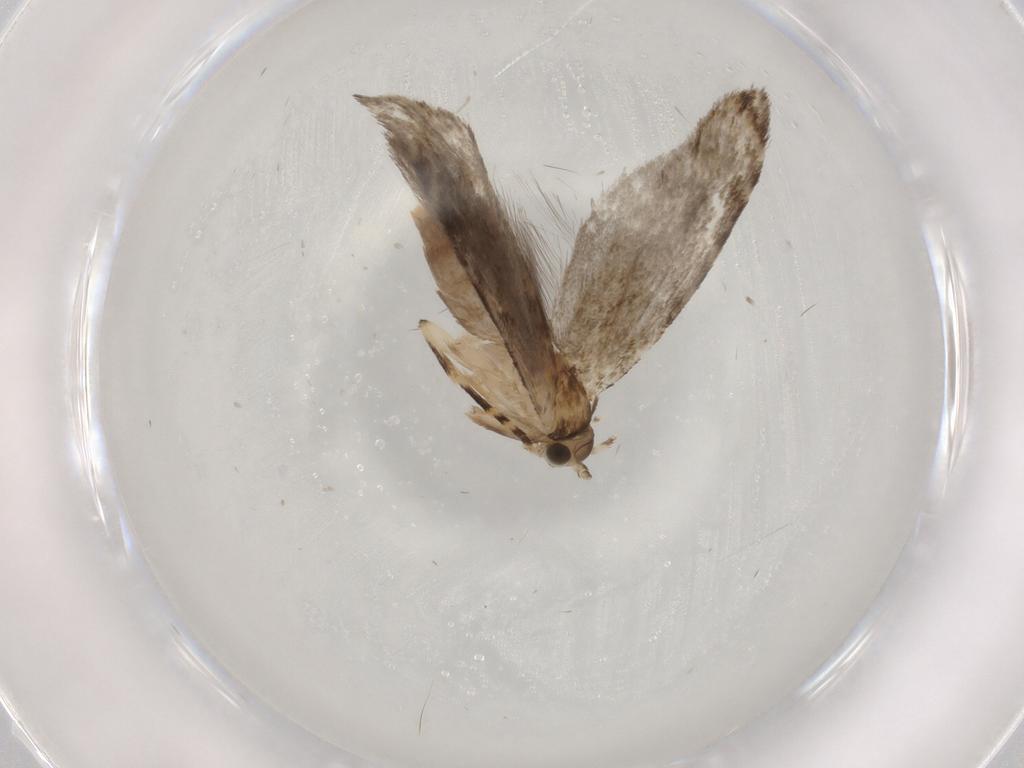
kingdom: Animalia
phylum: Arthropoda
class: Insecta
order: Lepidoptera
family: Tineidae
